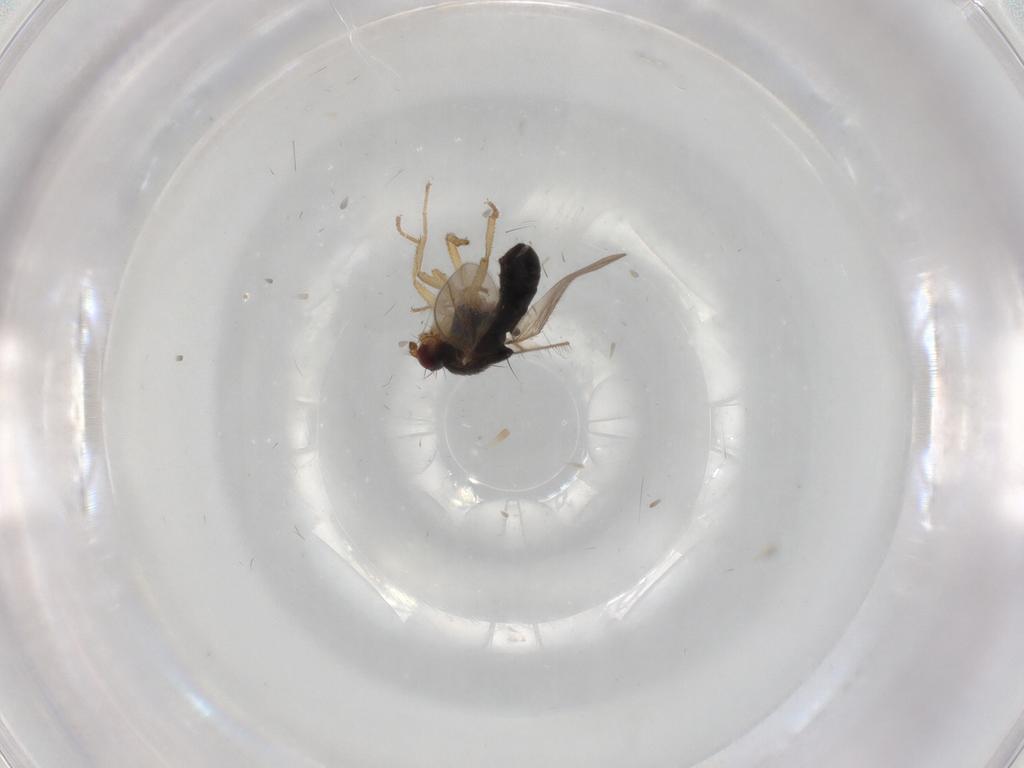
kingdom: Animalia
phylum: Arthropoda
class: Insecta
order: Diptera
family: Sphaeroceridae
